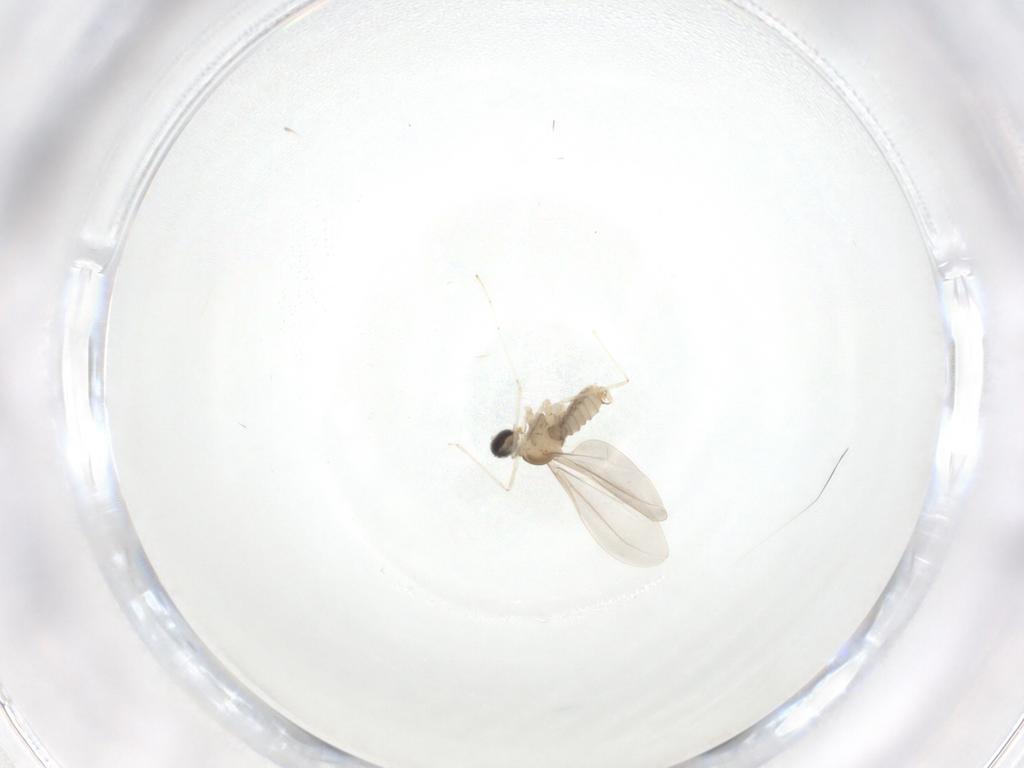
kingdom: Animalia
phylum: Arthropoda
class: Insecta
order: Diptera
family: Cecidomyiidae
